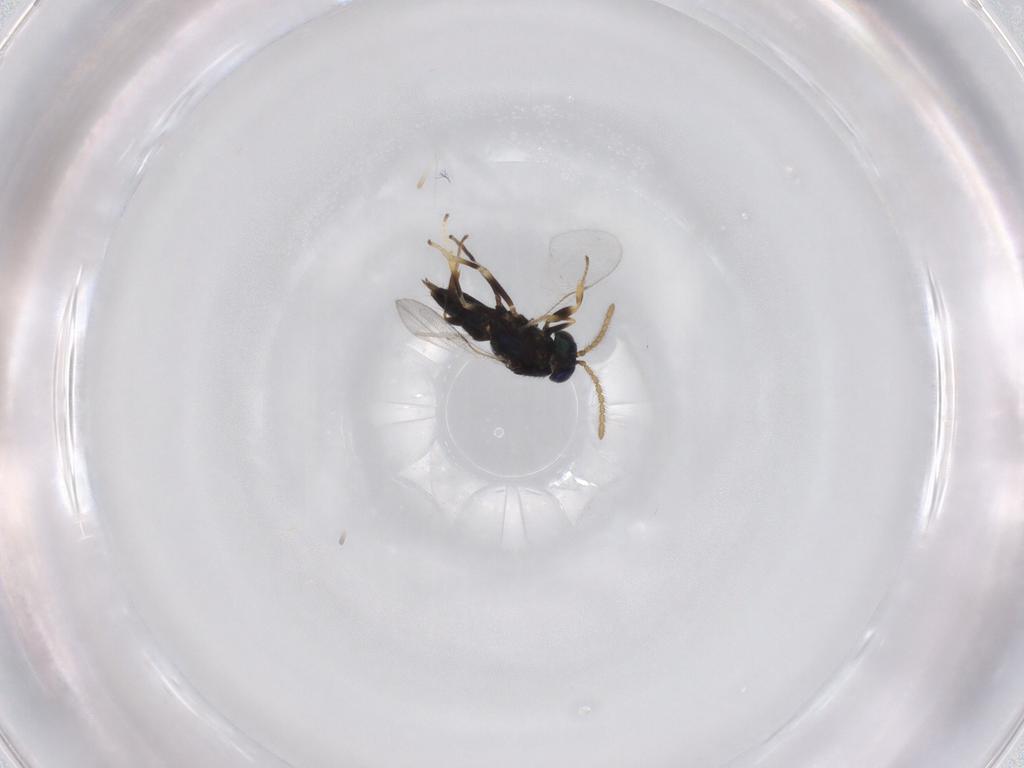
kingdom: Animalia
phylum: Arthropoda
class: Insecta
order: Hymenoptera
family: Encyrtidae
